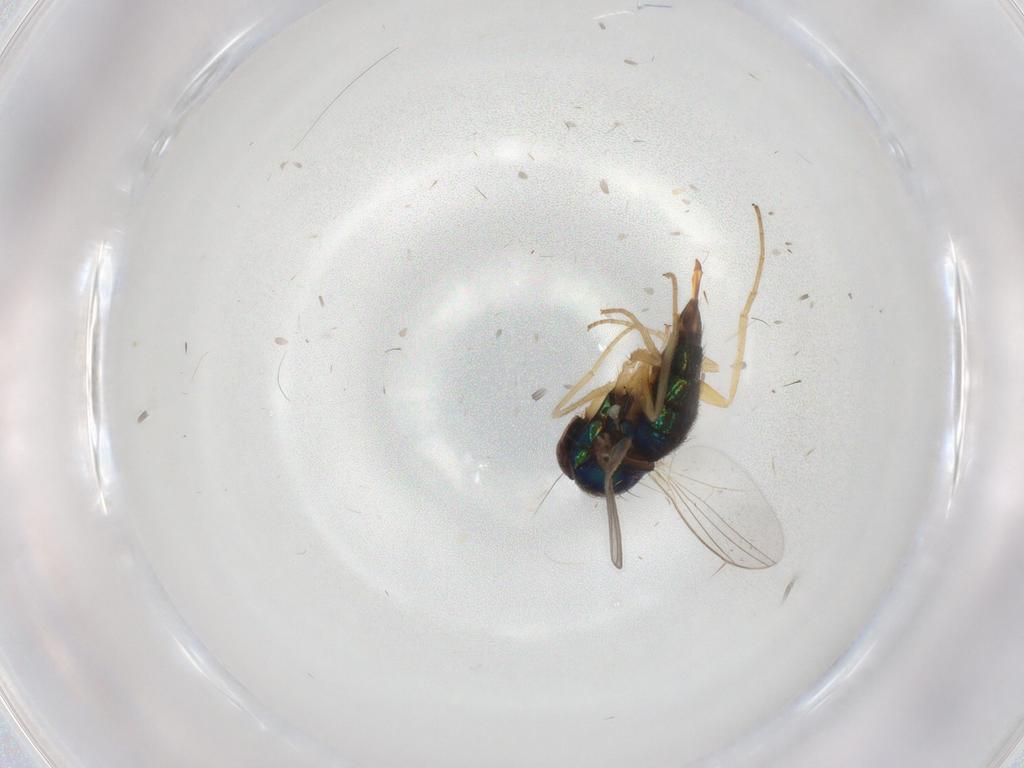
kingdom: Animalia
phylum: Arthropoda
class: Insecta
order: Diptera
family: Dolichopodidae
